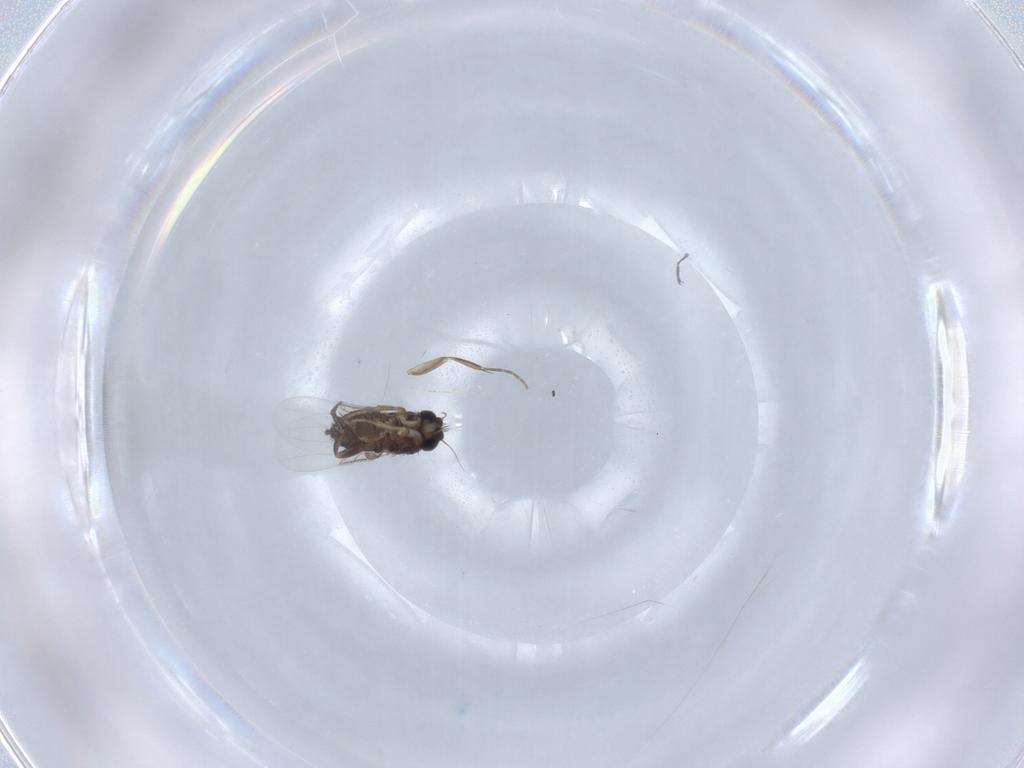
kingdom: Animalia
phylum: Arthropoda
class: Insecta
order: Diptera
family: Phoridae
